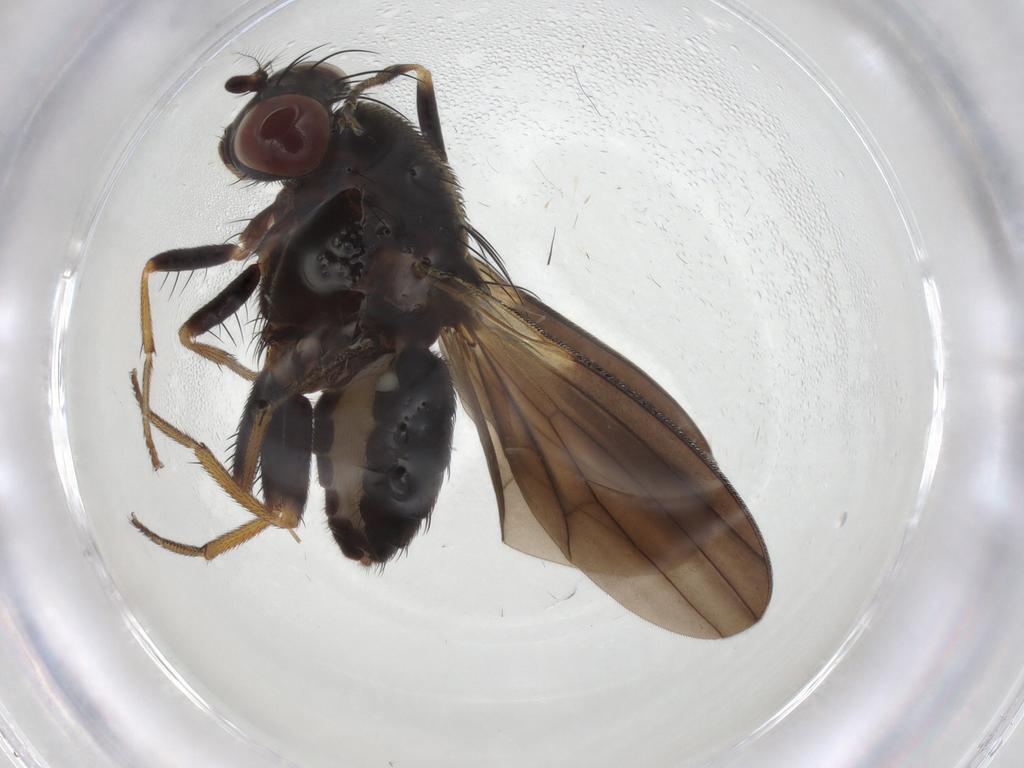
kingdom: Animalia
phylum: Arthropoda
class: Insecta
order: Diptera
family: Pipunculidae
